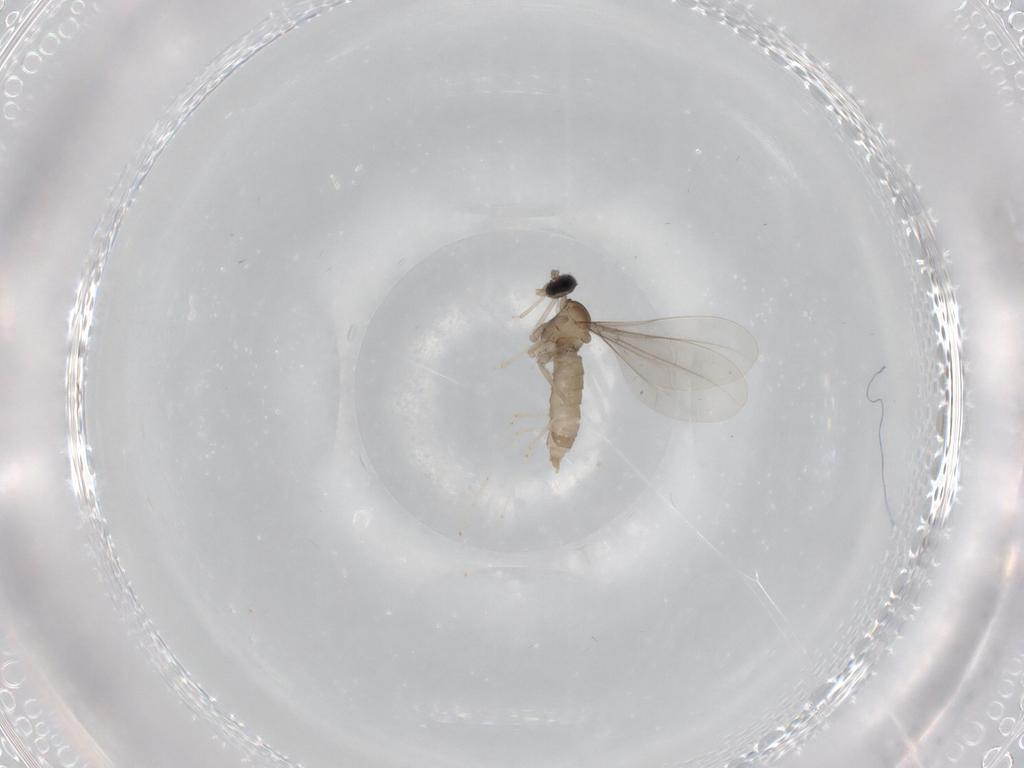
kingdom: Animalia
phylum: Arthropoda
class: Insecta
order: Diptera
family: Cecidomyiidae
